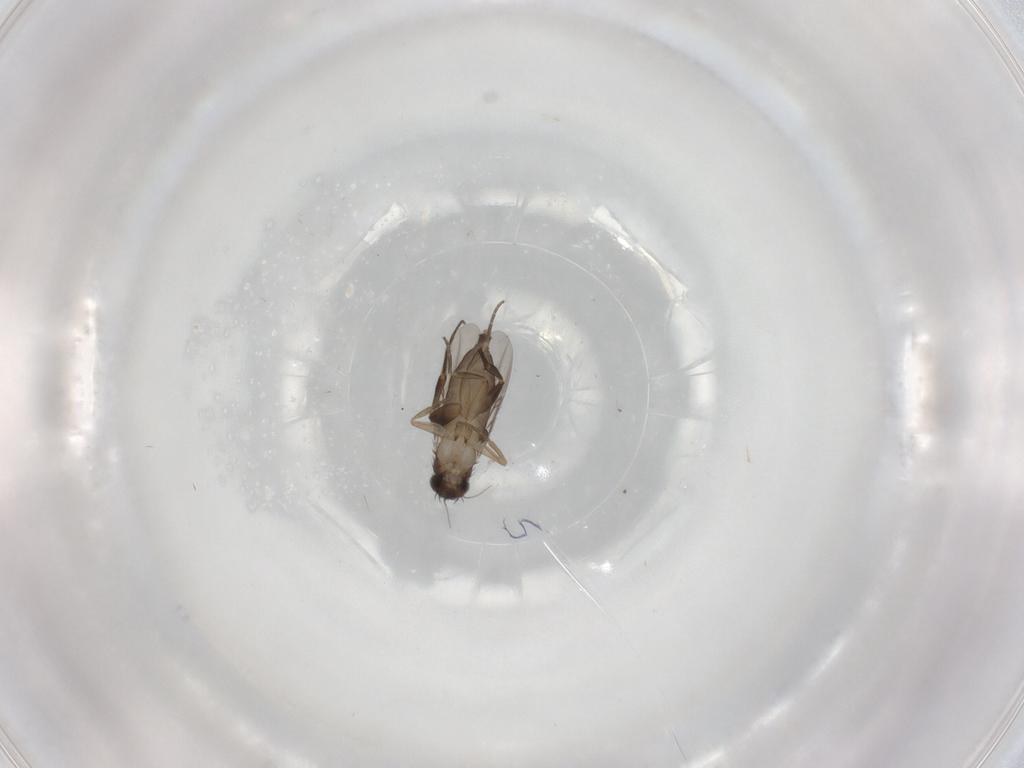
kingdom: Animalia
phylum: Arthropoda
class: Insecta
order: Diptera
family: Phoridae
